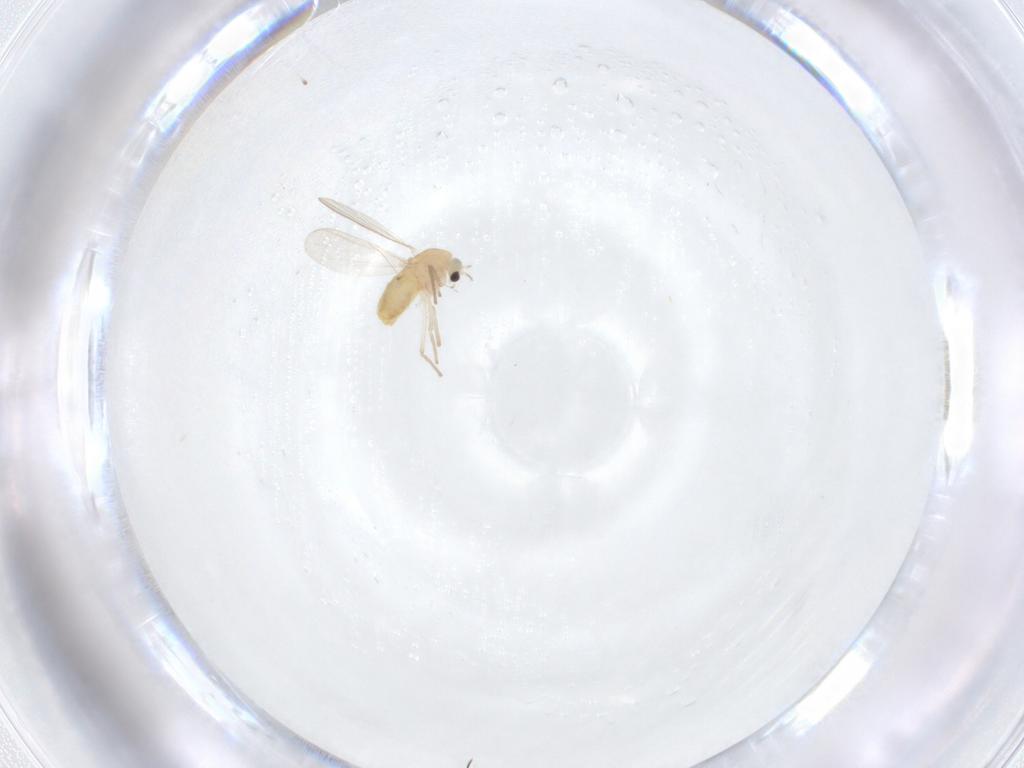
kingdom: Animalia
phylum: Arthropoda
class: Insecta
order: Diptera
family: Chironomidae
